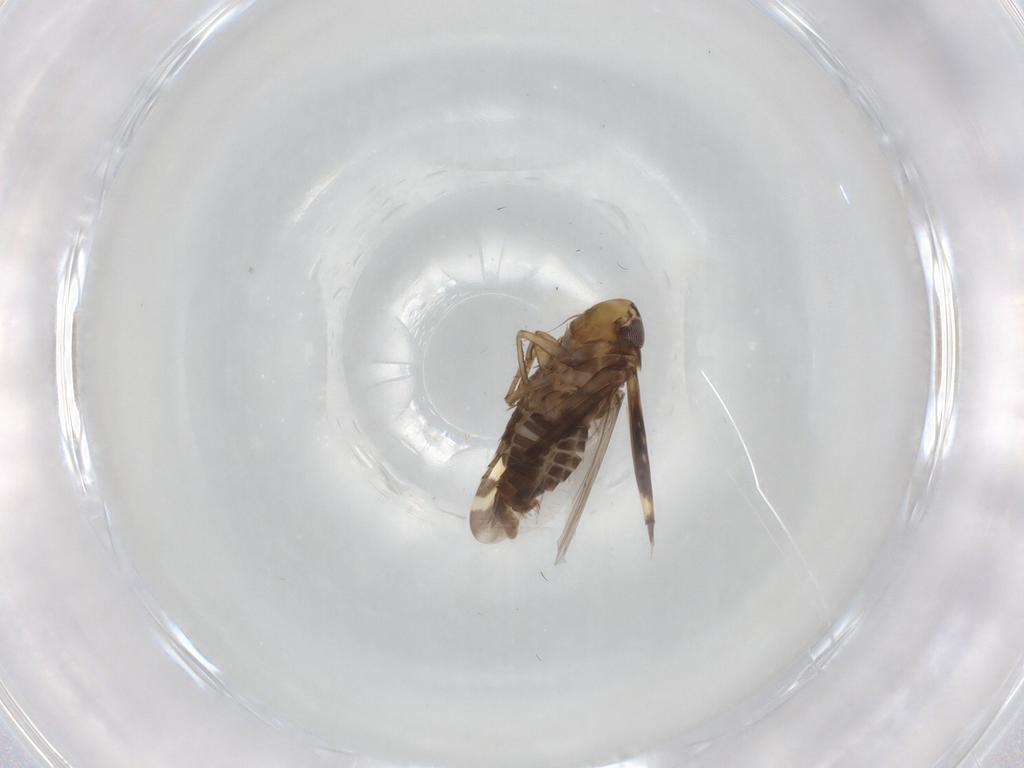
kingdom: Animalia
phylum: Arthropoda
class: Insecta
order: Hemiptera
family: Cicadellidae
